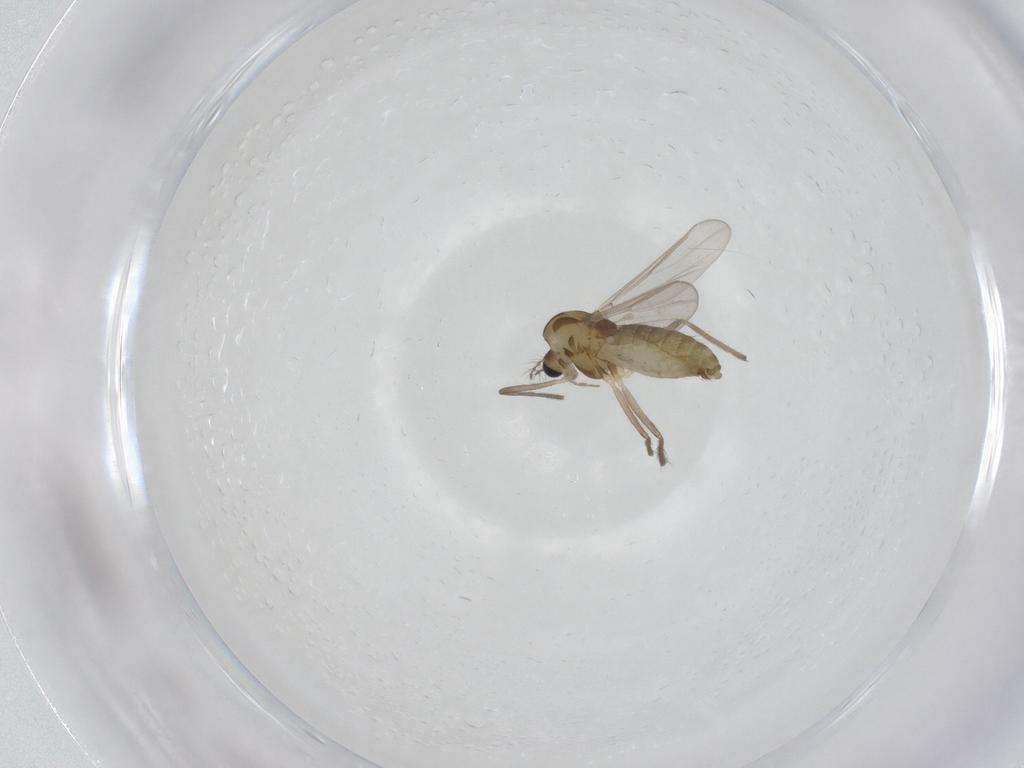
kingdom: Animalia
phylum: Arthropoda
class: Insecta
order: Diptera
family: Chironomidae
